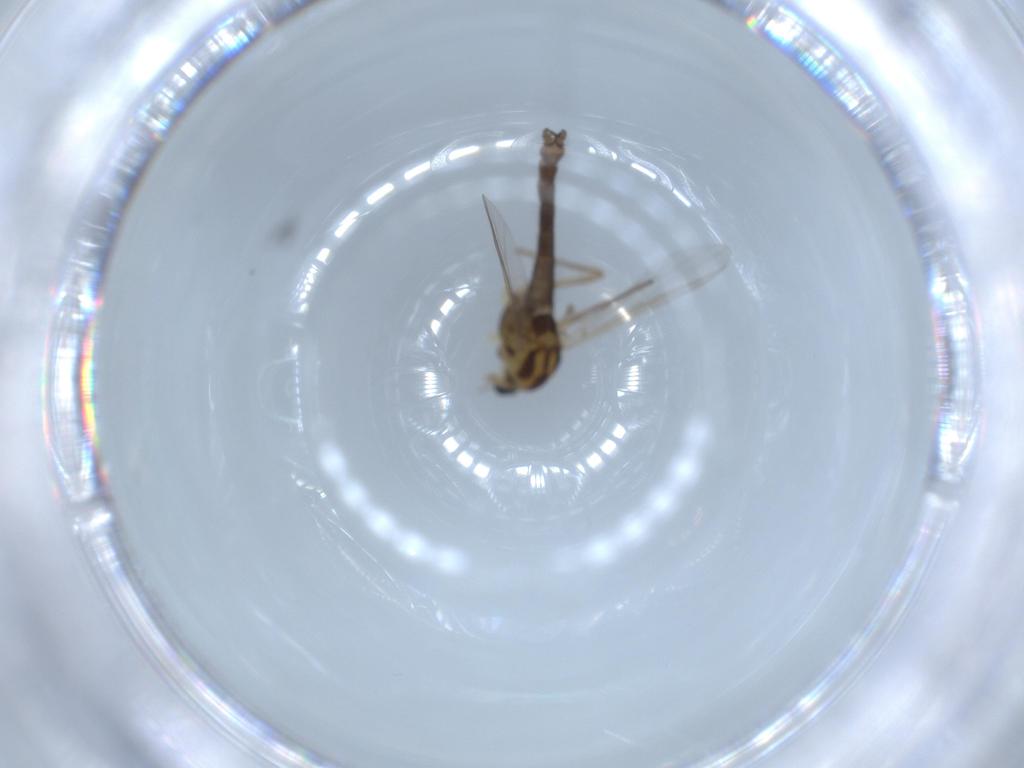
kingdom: Animalia
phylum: Arthropoda
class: Insecta
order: Diptera
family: Chironomidae
